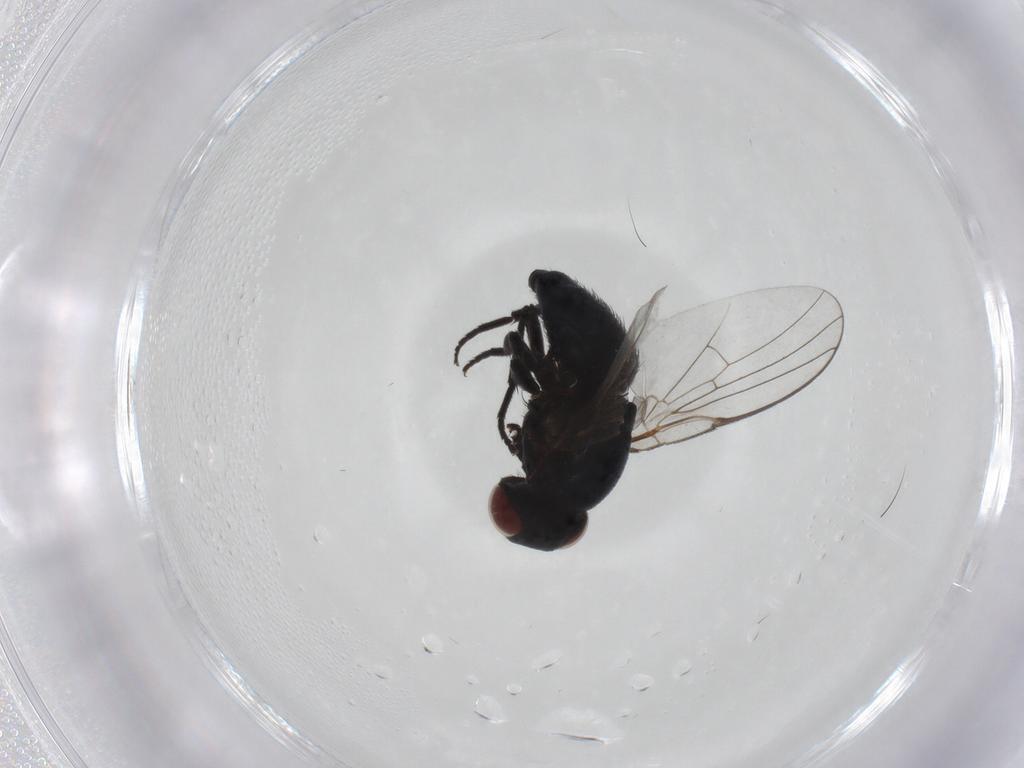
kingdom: Animalia
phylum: Arthropoda
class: Insecta
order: Diptera
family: Agromyzidae
